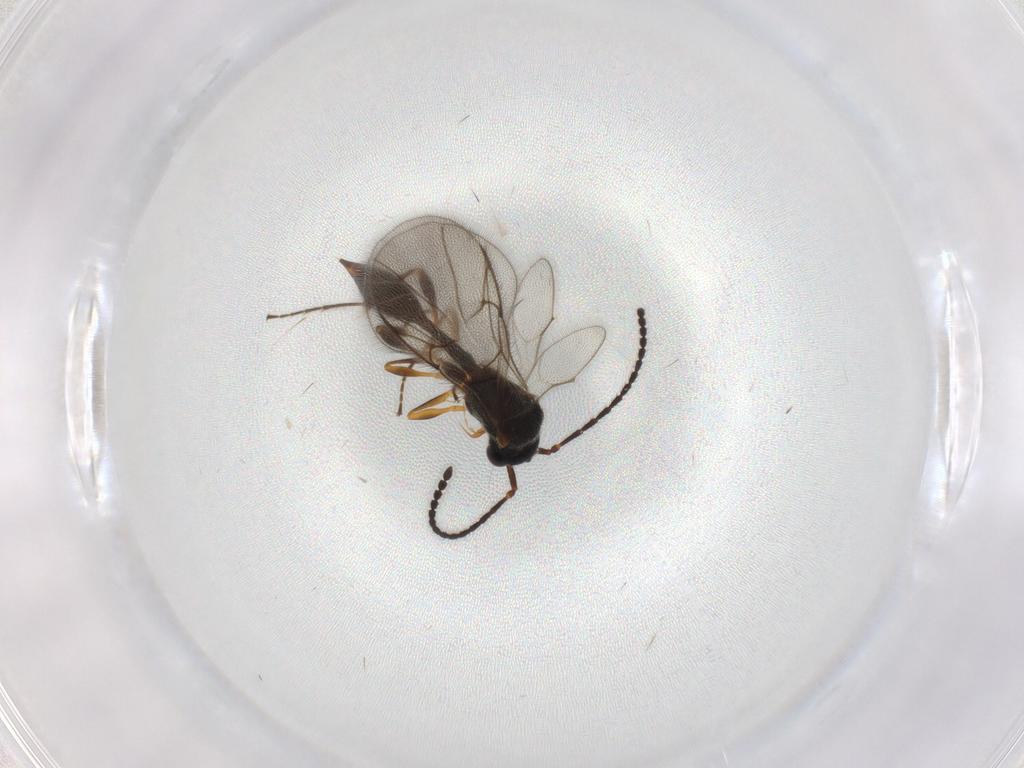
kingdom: Animalia
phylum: Arthropoda
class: Insecta
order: Hymenoptera
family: Diapriidae
